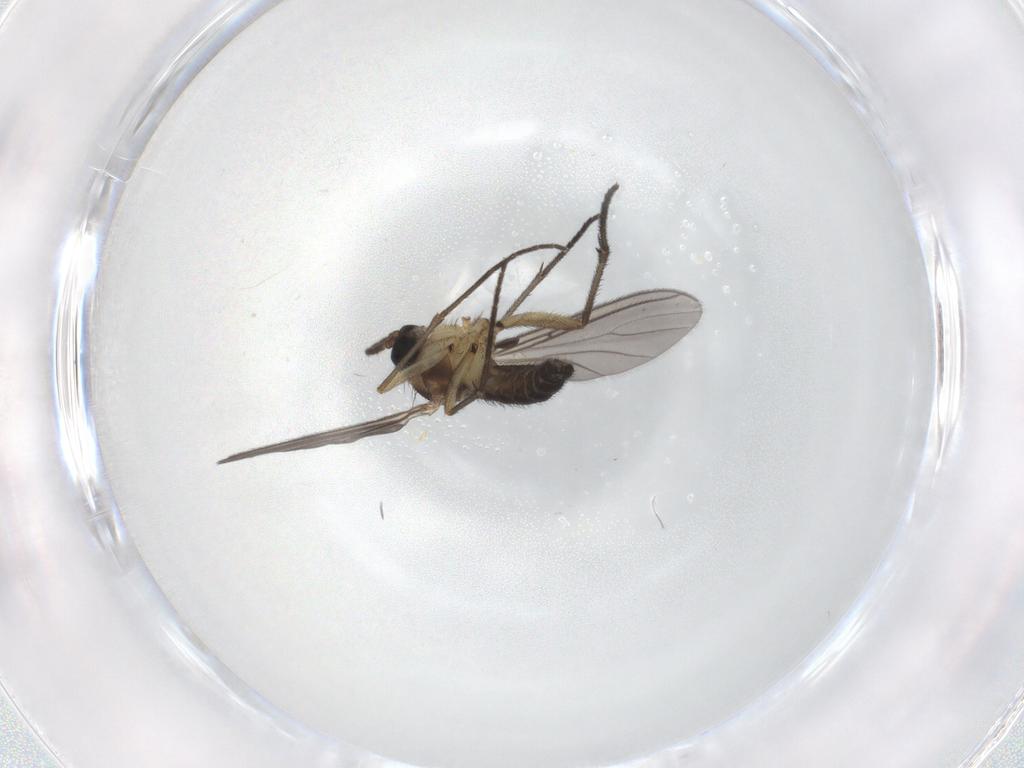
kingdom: Animalia
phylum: Arthropoda
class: Insecta
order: Diptera
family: Sciaridae
